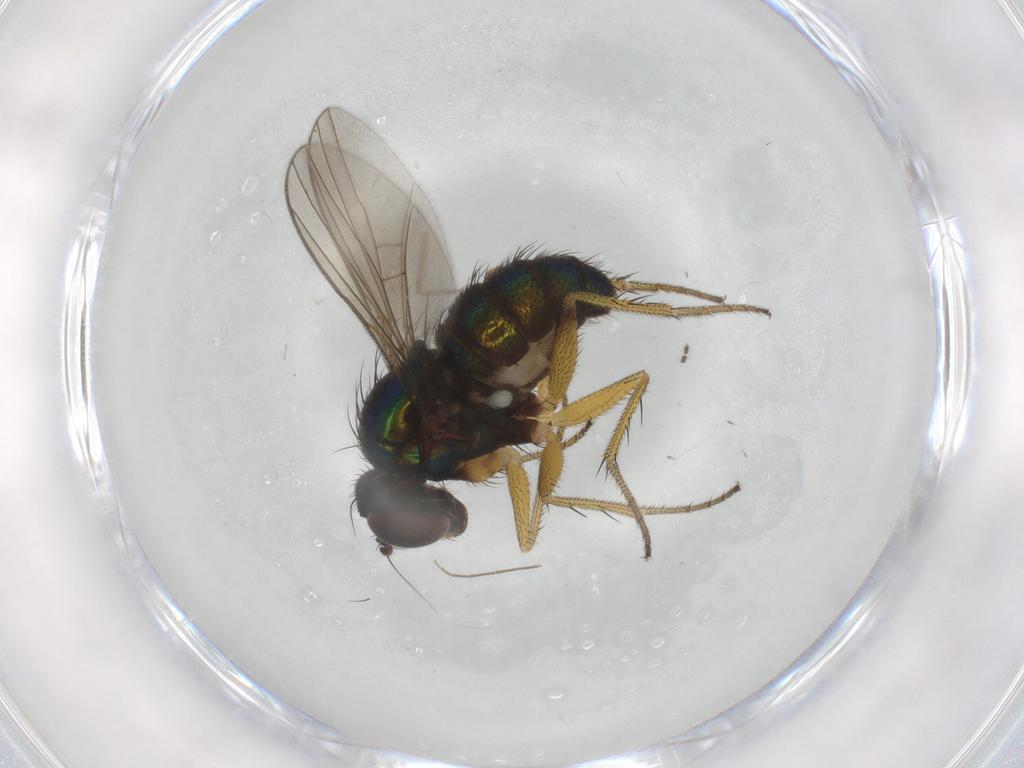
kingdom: Animalia
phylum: Arthropoda
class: Insecta
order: Diptera
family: Dolichopodidae
